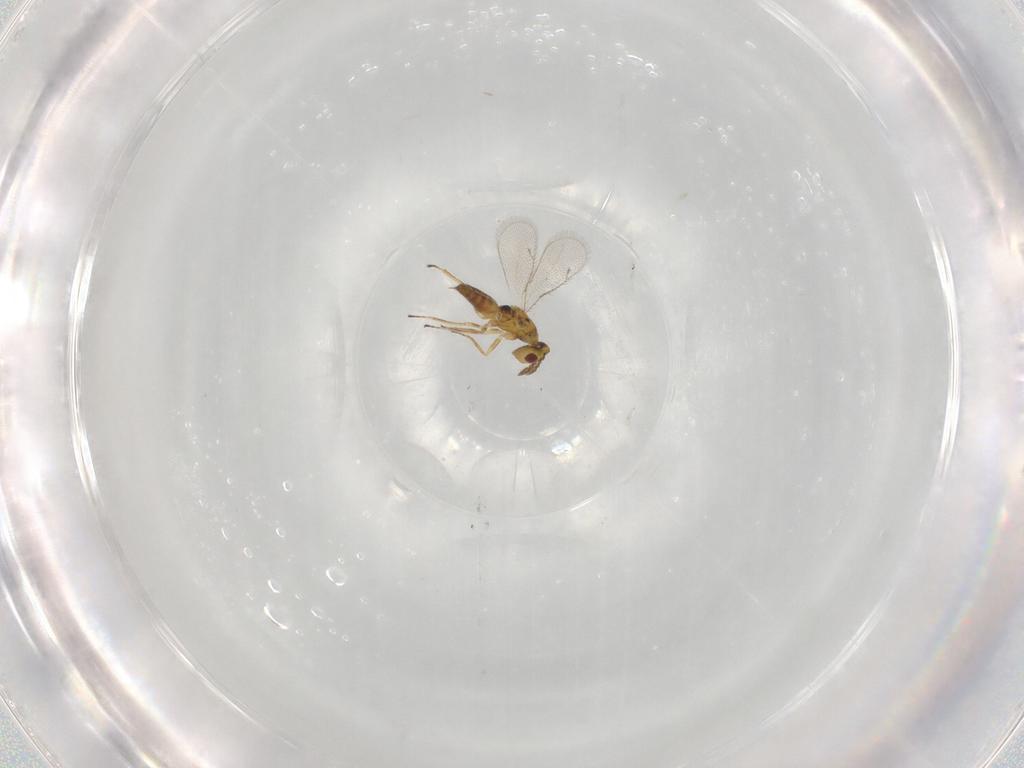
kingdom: Animalia
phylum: Arthropoda
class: Insecta
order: Hymenoptera
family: Eulophidae
